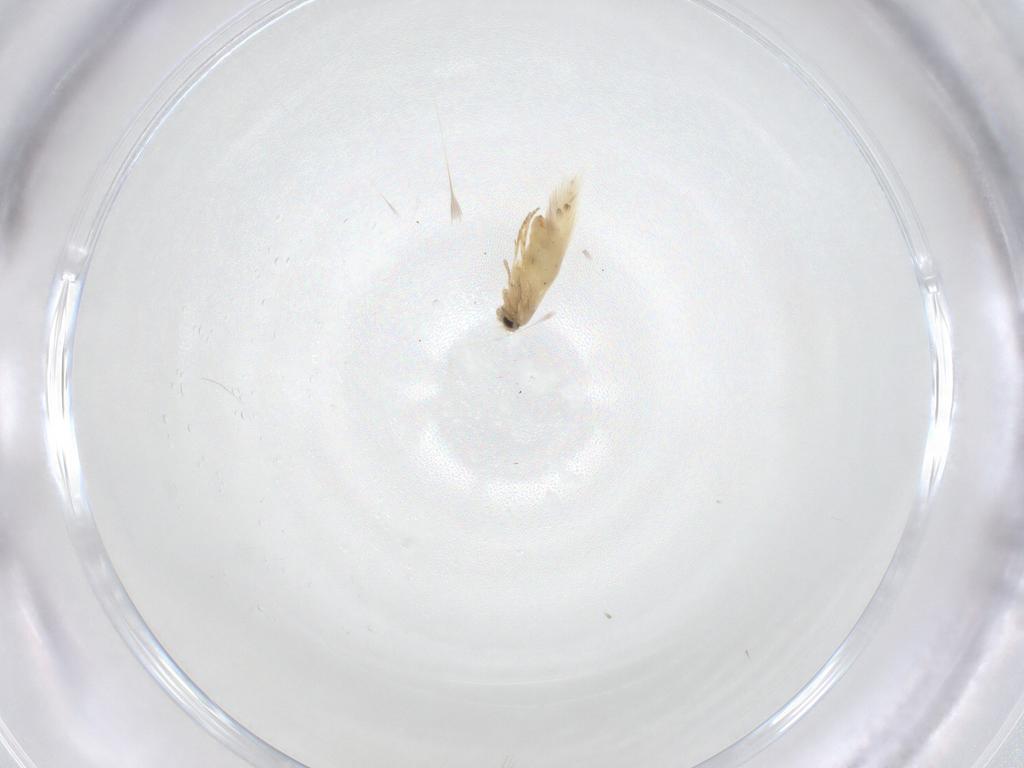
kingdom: Animalia
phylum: Arthropoda
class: Insecta
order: Lepidoptera
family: Crambidae
